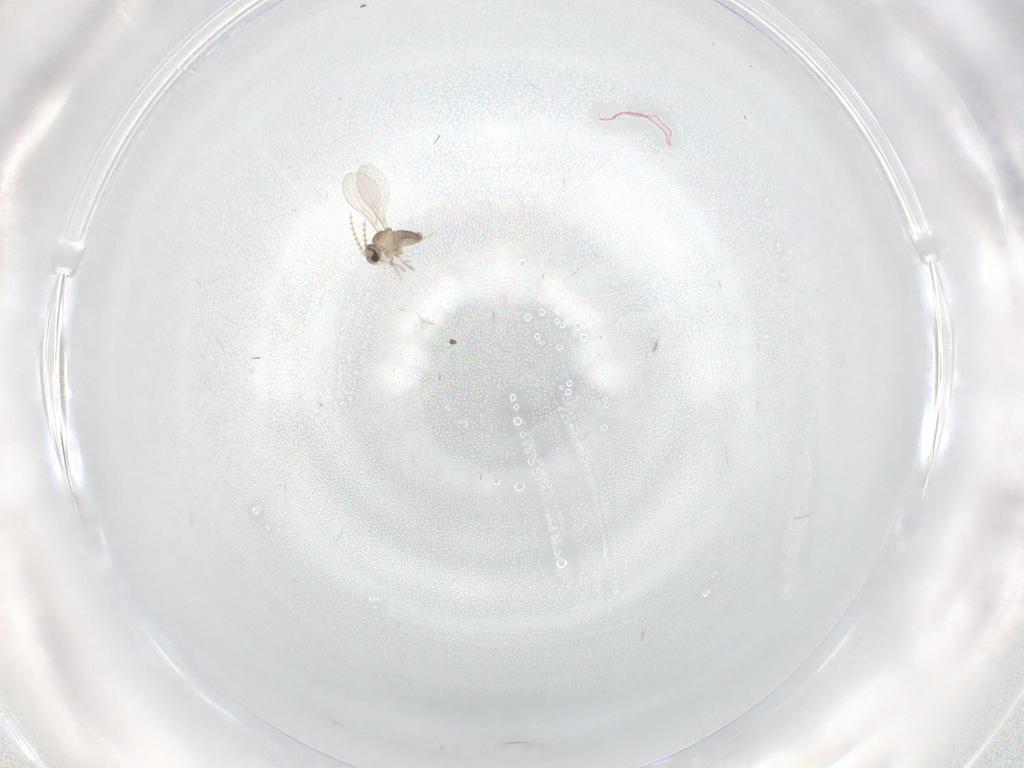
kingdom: Animalia
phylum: Arthropoda
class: Insecta
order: Diptera
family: Cecidomyiidae
